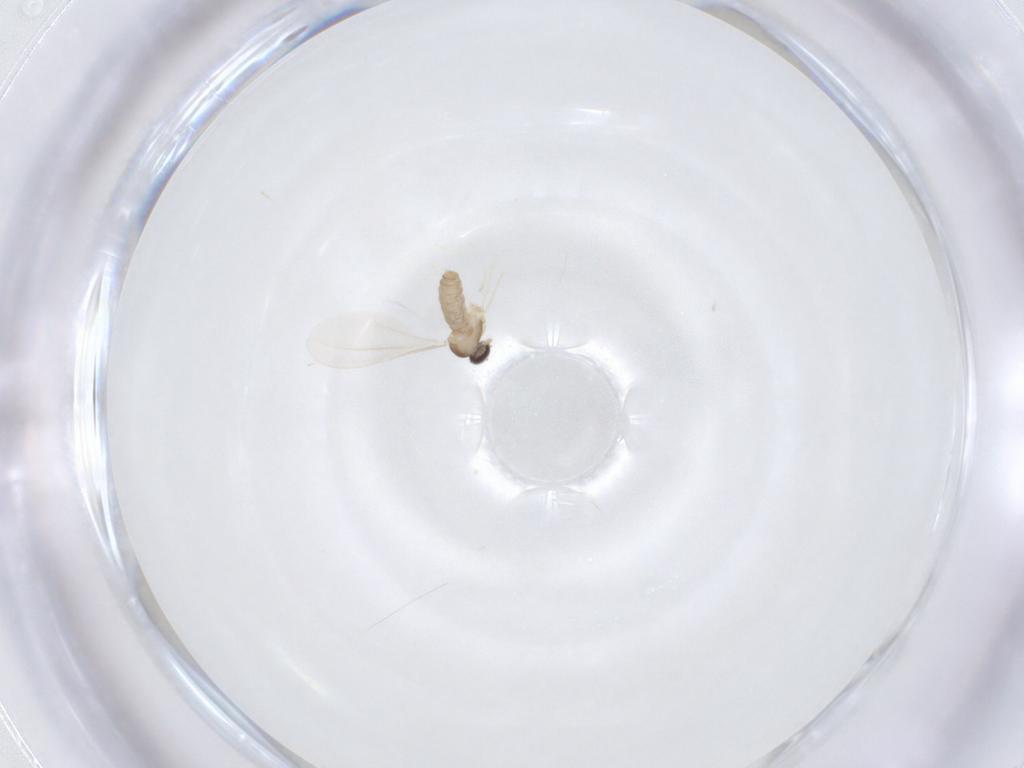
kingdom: Animalia
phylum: Arthropoda
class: Insecta
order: Diptera
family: Cecidomyiidae
